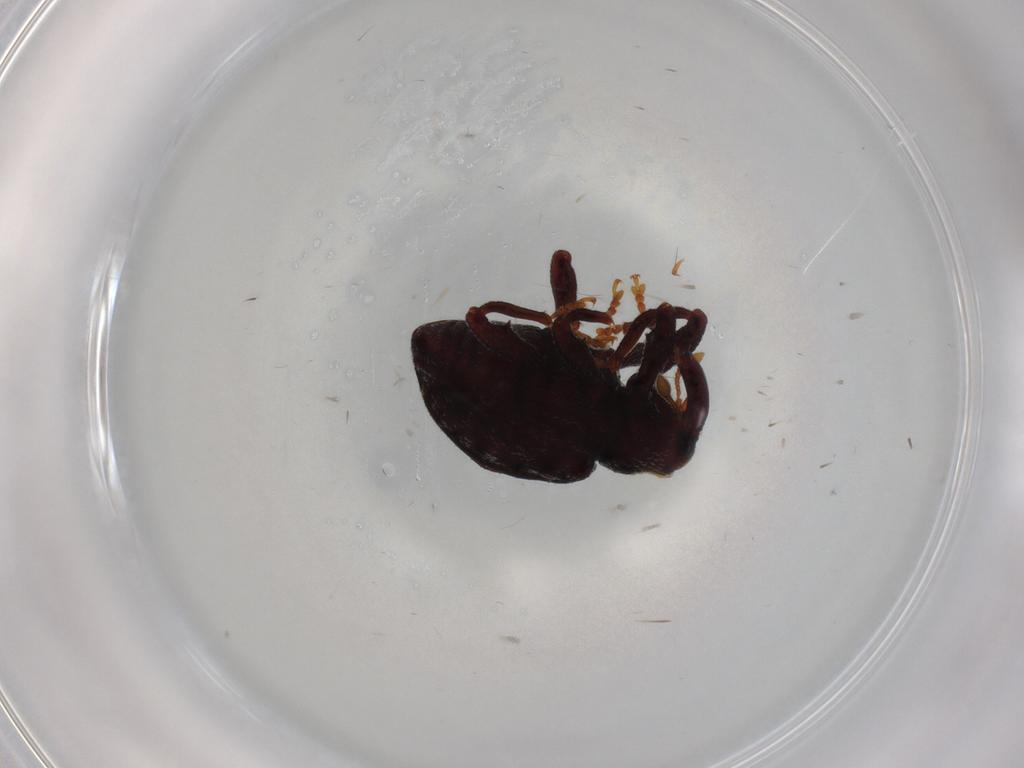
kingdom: Animalia
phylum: Arthropoda
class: Insecta
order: Coleoptera
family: Curculionidae
